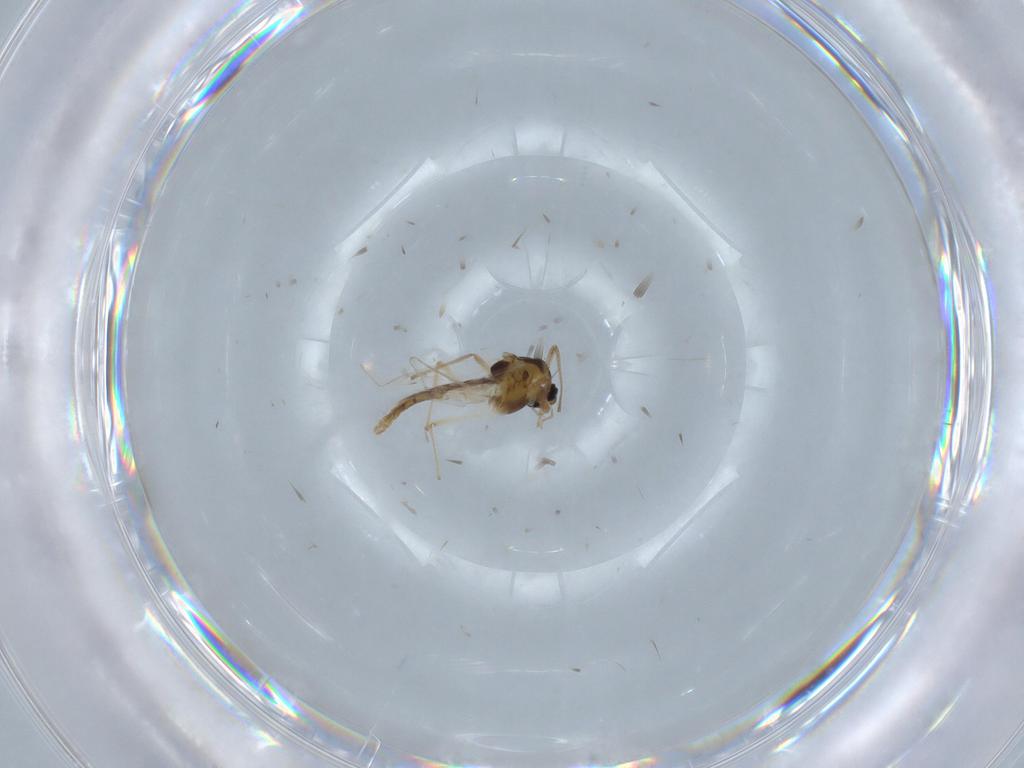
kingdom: Animalia
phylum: Arthropoda
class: Insecta
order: Diptera
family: Chironomidae
